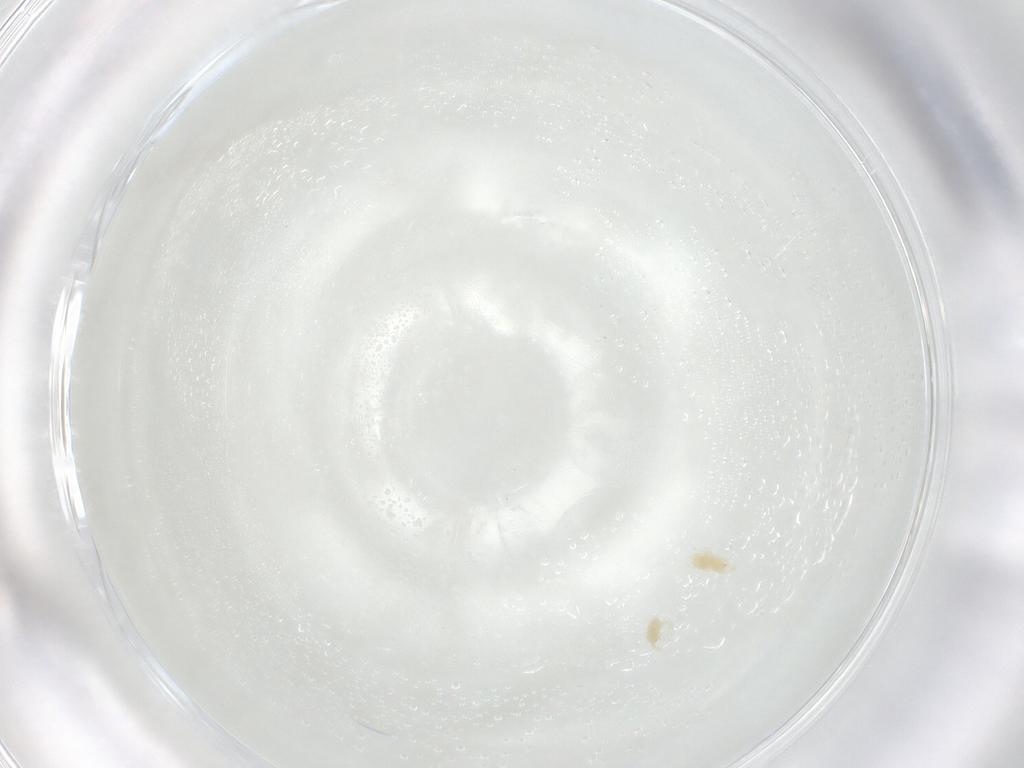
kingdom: Animalia
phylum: Arthropoda
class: Arachnida
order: Trombidiformes
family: Tetranychidae
